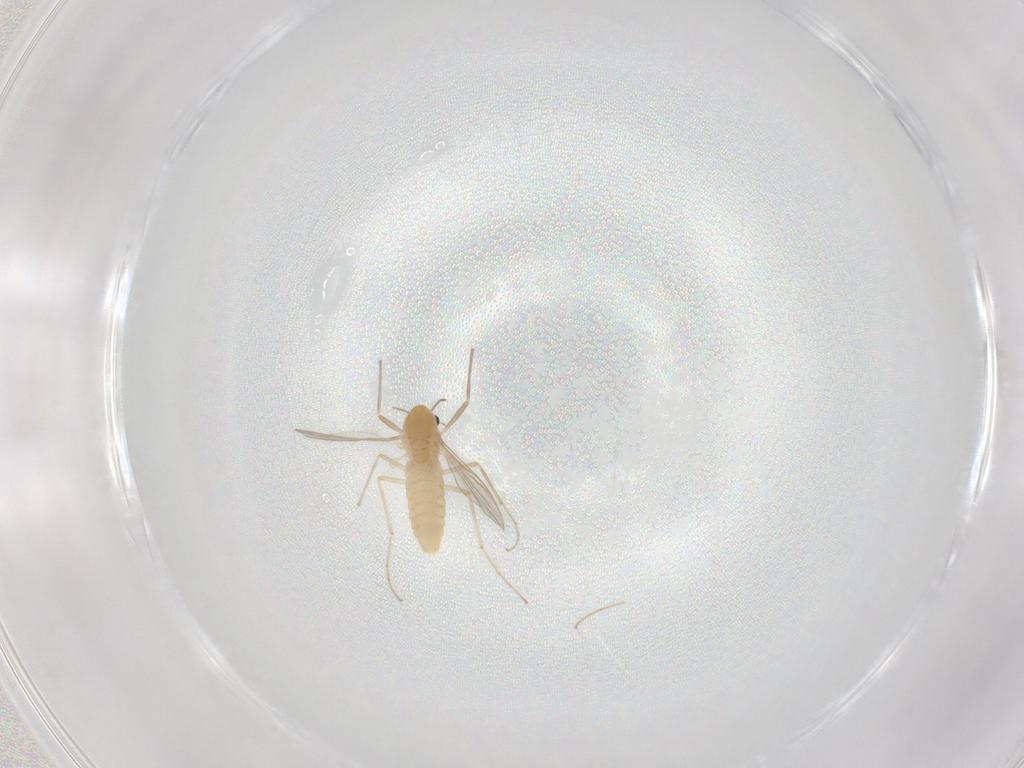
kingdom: Animalia
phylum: Arthropoda
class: Insecta
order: Diptera
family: Chironomidae
